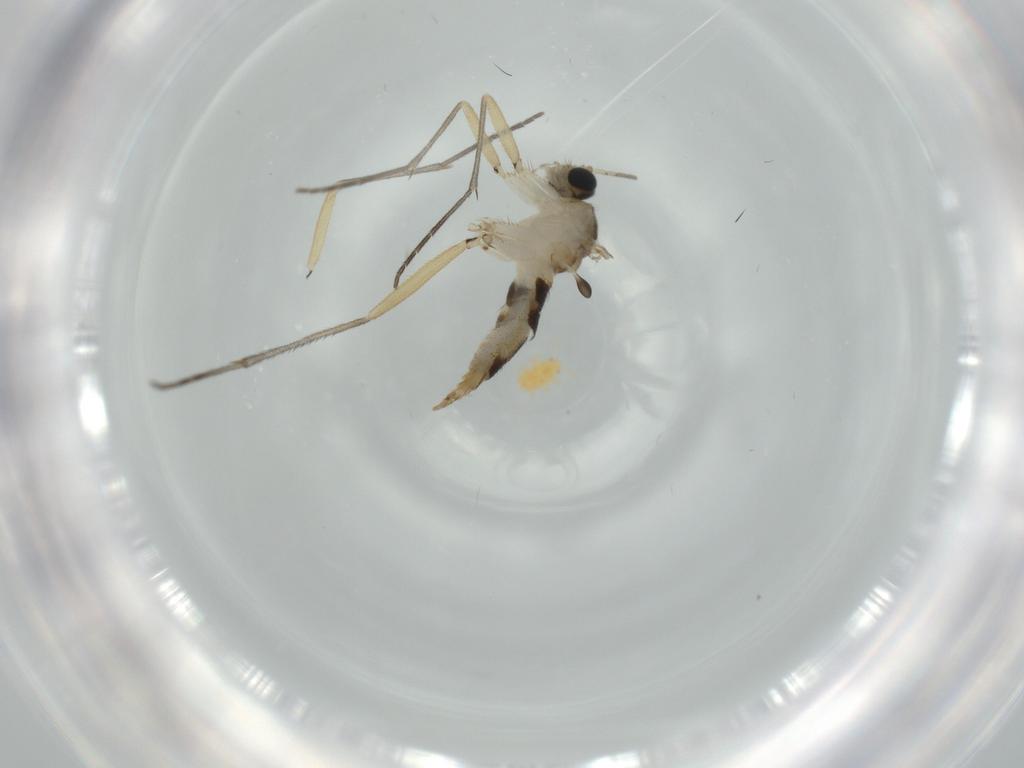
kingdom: Animalia
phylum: Arthropoda
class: Insecta
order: Diptera
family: Sciaridae
